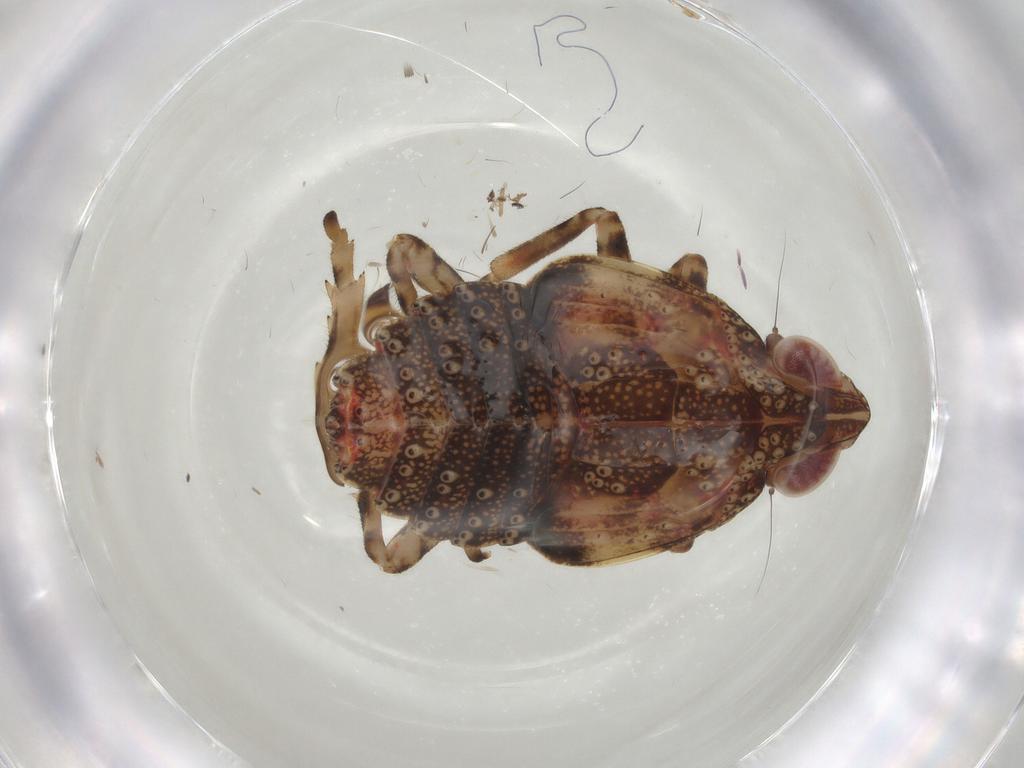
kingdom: Animalia
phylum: Arthropoda
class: Insecta
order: Hemiptera
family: Tropiduchidae
